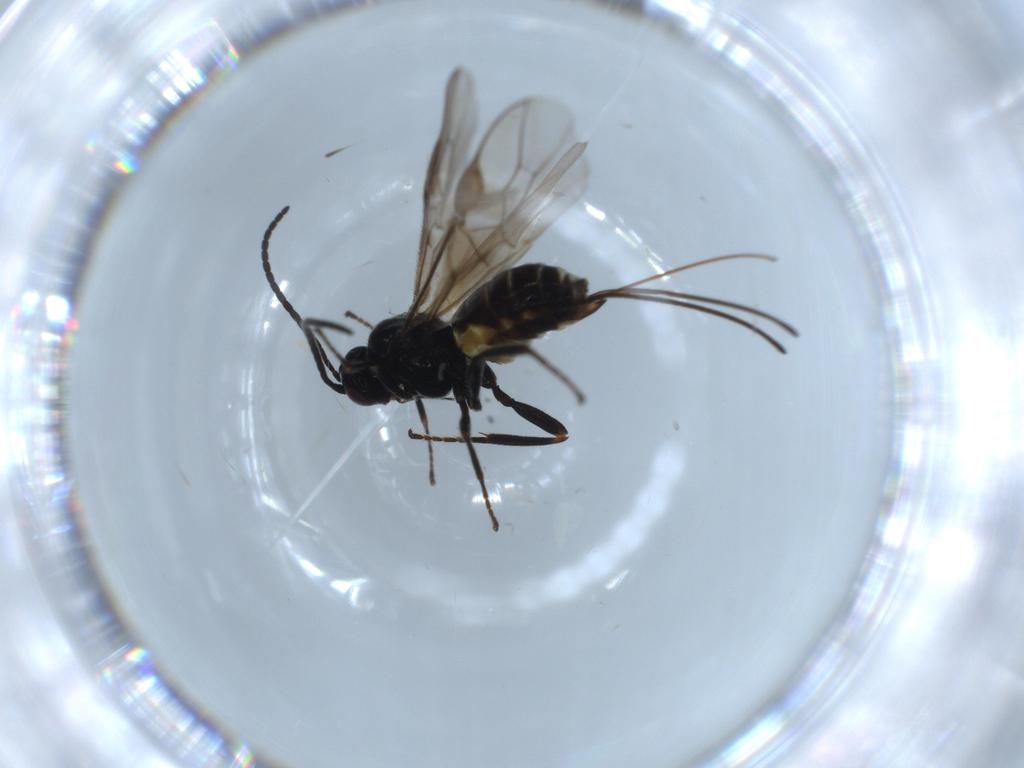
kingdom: Animalia
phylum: Arthropoda
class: Insecta
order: Hymenoptera
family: Braconidae
